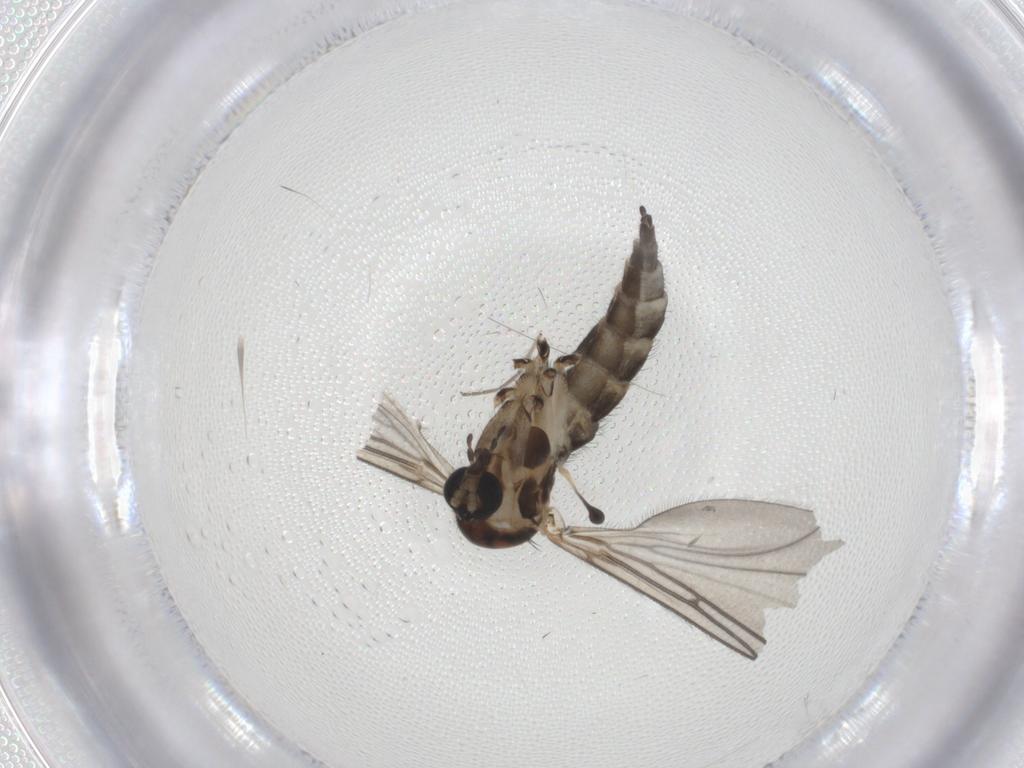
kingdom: Animalia
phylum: Arthropoda
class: Insecta
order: Diptera
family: Sciaridae
